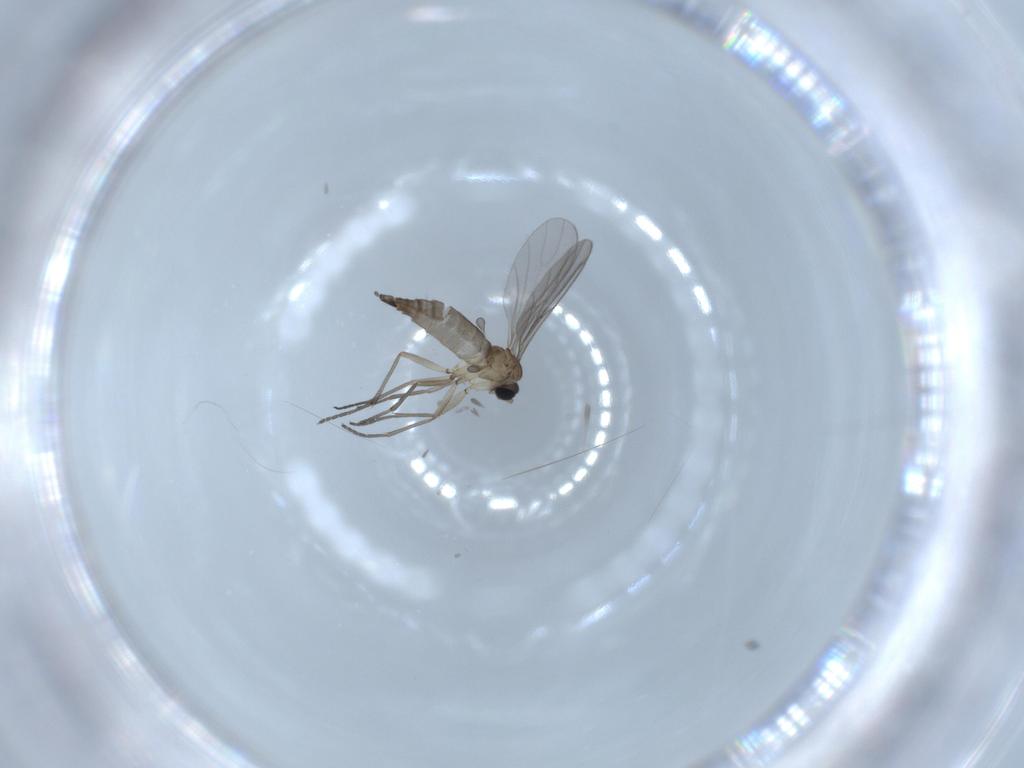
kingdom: Animalia
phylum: Arthropoda
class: Insecta
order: Diptera
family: Sciaridae
